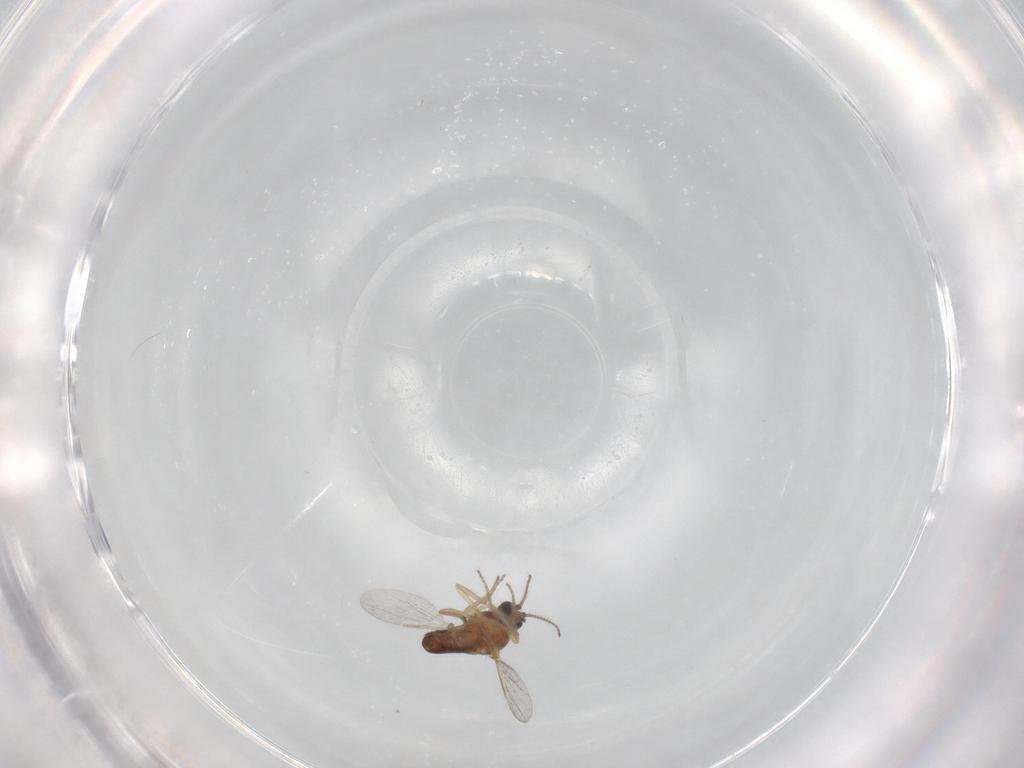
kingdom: Animalia
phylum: Arthropoda
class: Insecta
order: Diptera
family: Ceratopogonidae
